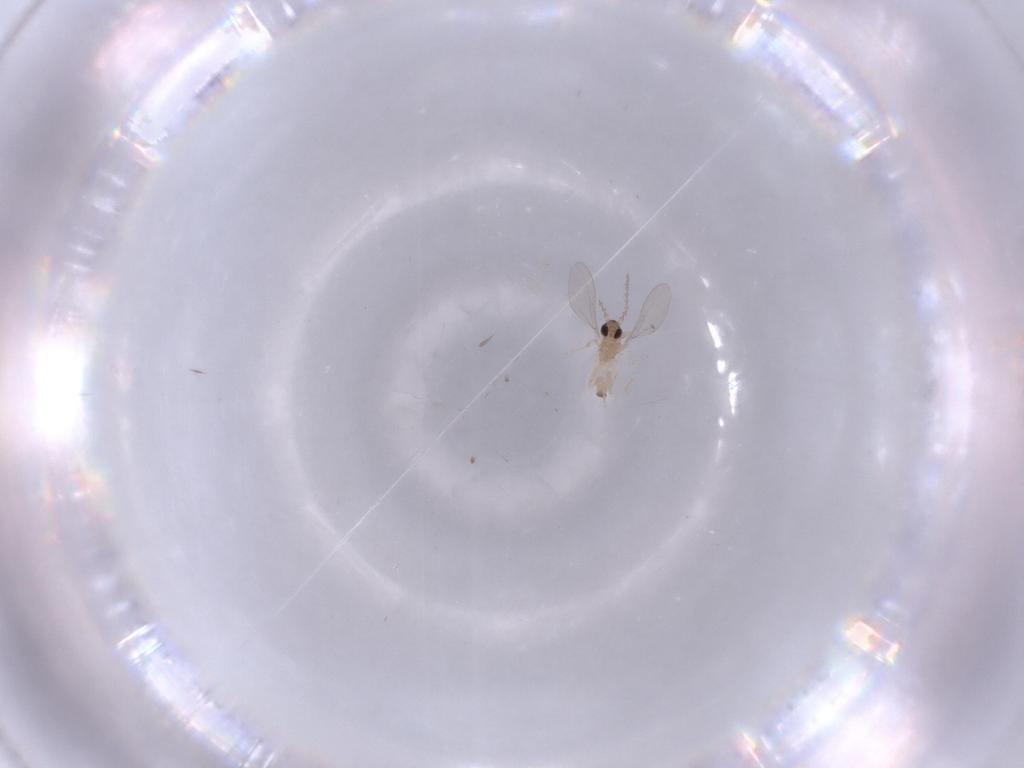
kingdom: Animalia
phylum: Arthropoda
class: Insecta
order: Diptera
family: Cecidomyiidae
